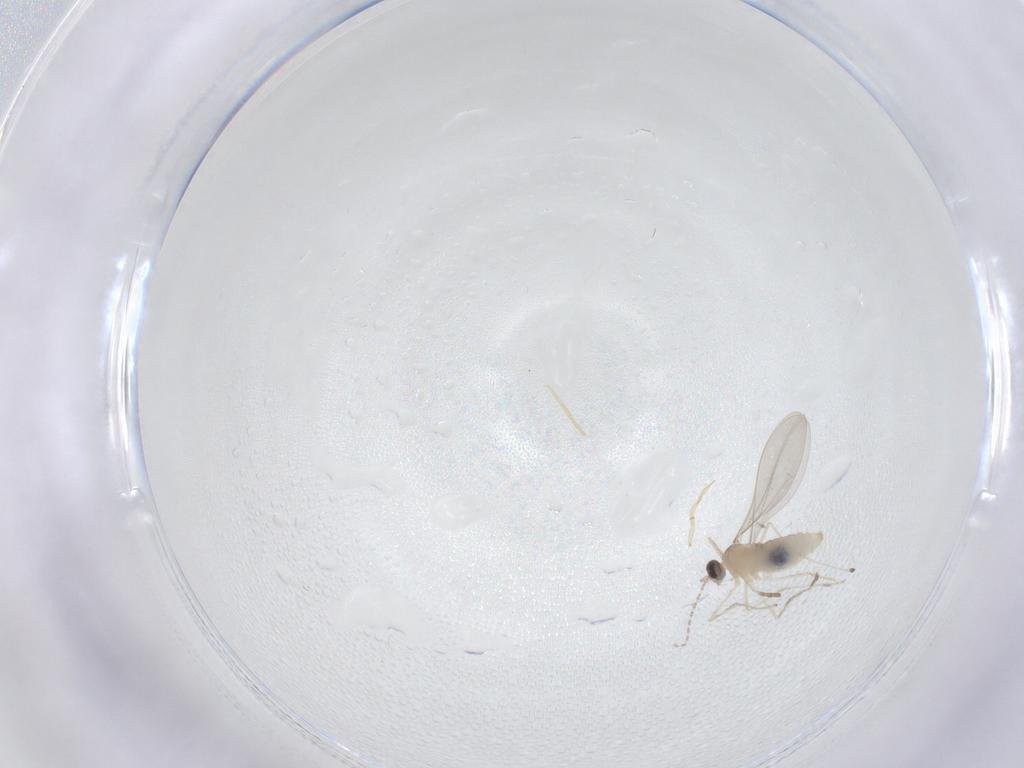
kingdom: Animalia
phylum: Arthropoda
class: Insecta
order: Diptera
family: Cecidomyiidae
